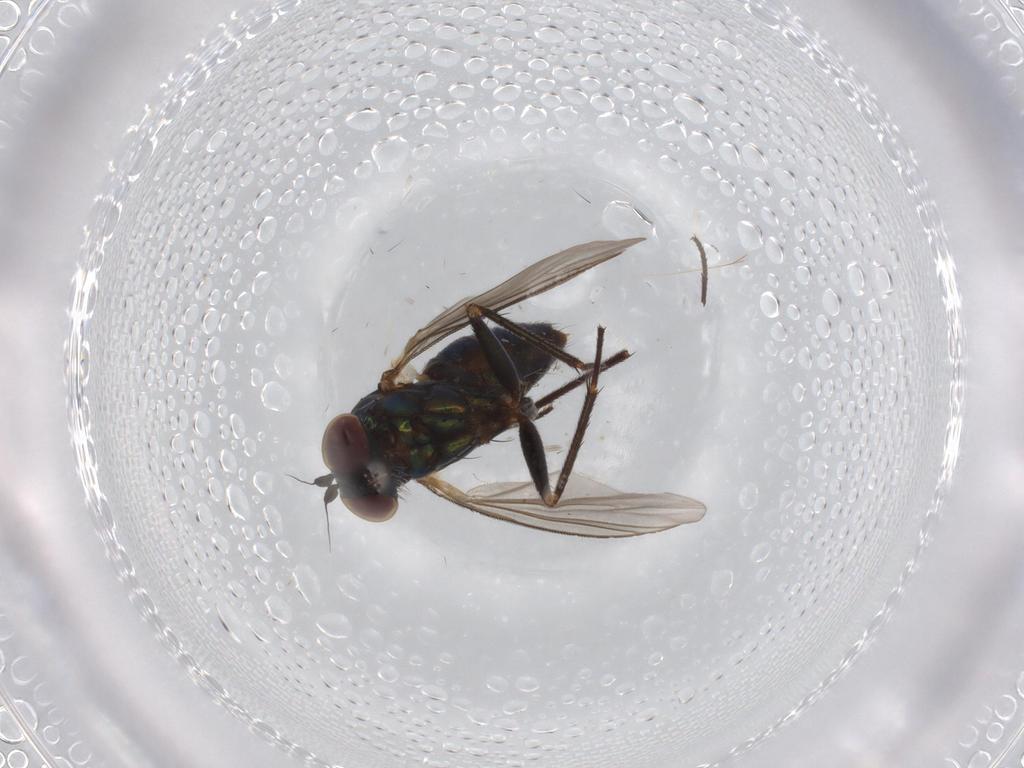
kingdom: Animalia
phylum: Arthropoda
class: Insecta
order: Diptera
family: Dolichopodidae
